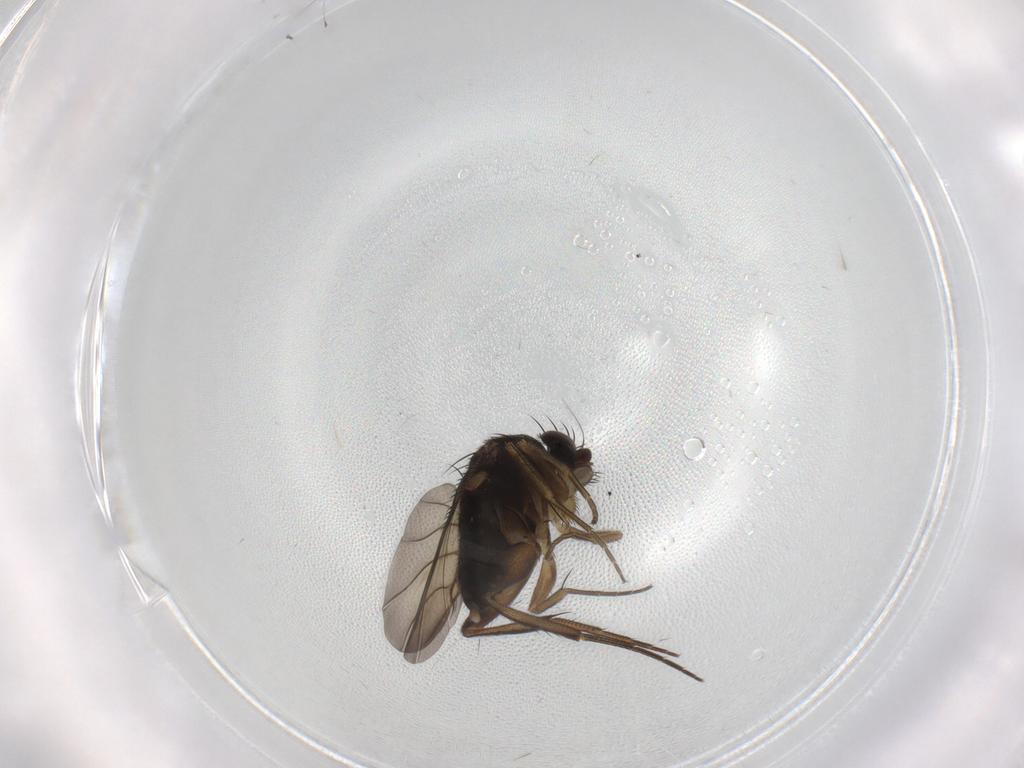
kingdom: Animalia
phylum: Arthropoda
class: Insecta
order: Diptera
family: Phoridae
